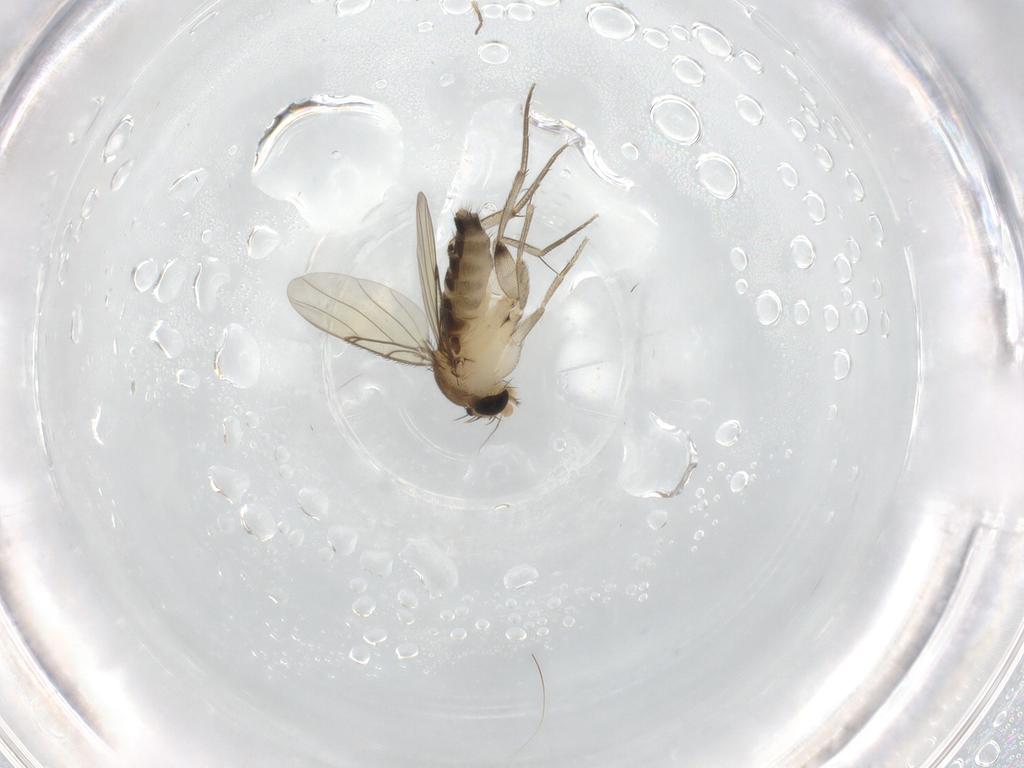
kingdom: Animalia
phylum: Arthropoda
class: Insecta
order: Diptera
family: Phoridae
